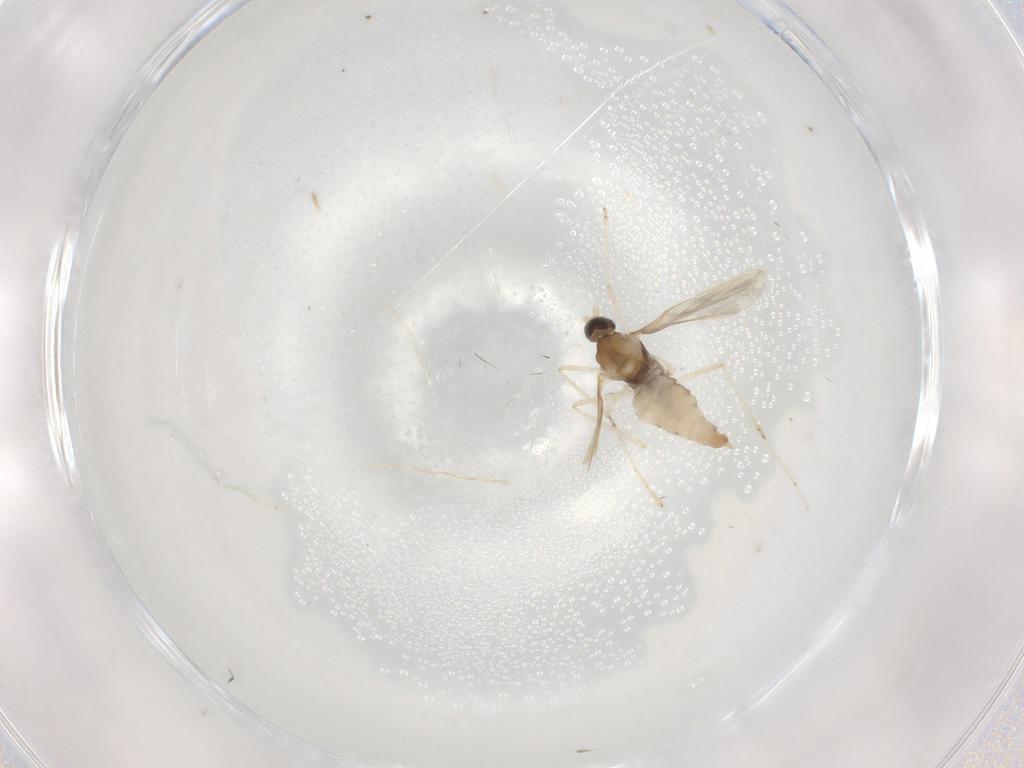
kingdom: Animalia
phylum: Arthropoda
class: Insecta
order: Diptera
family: Cecidomyiidae
